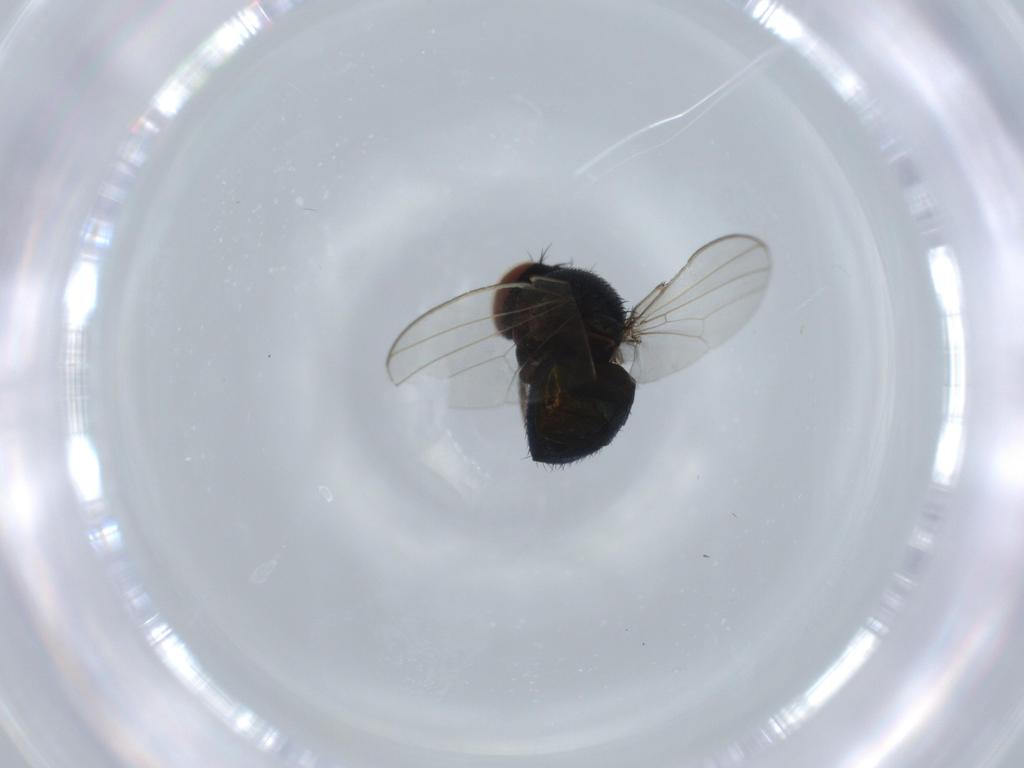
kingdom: Animalia
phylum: Arthropoda
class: Insecta
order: Diptera
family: Milichiidae
